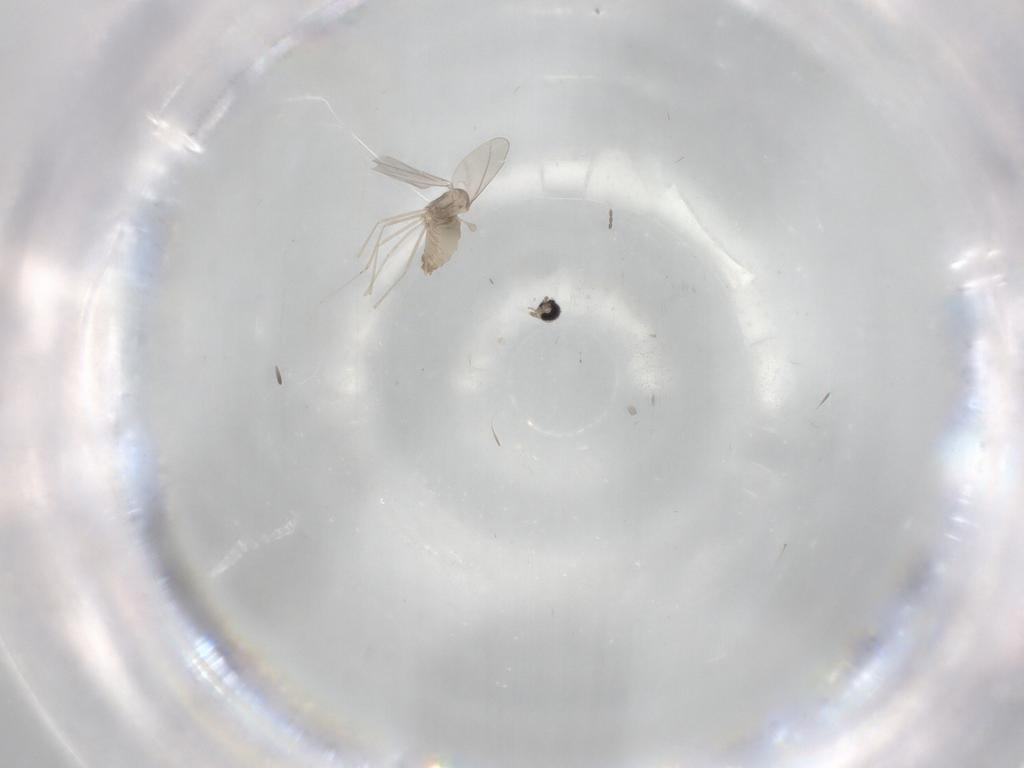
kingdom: Animalia
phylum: Arthropoda
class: Insecta
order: Diptera
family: Cecidomyiidae
